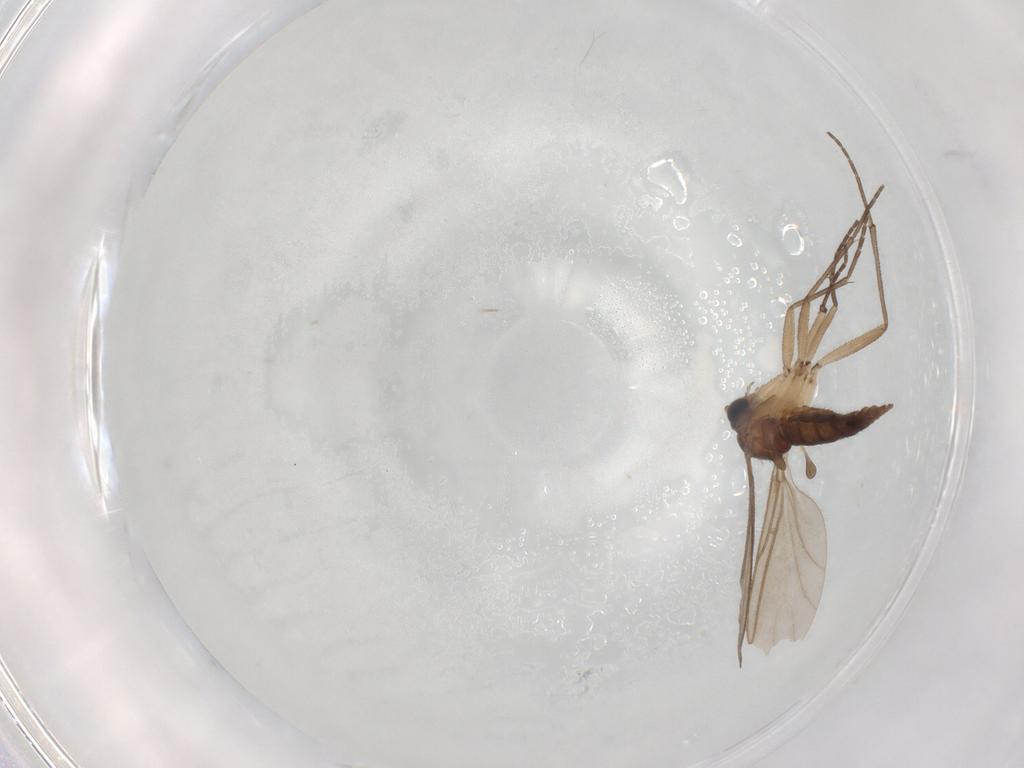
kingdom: Animalia
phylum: Arthropoda
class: Insecta
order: Diptera
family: Sciaridae
